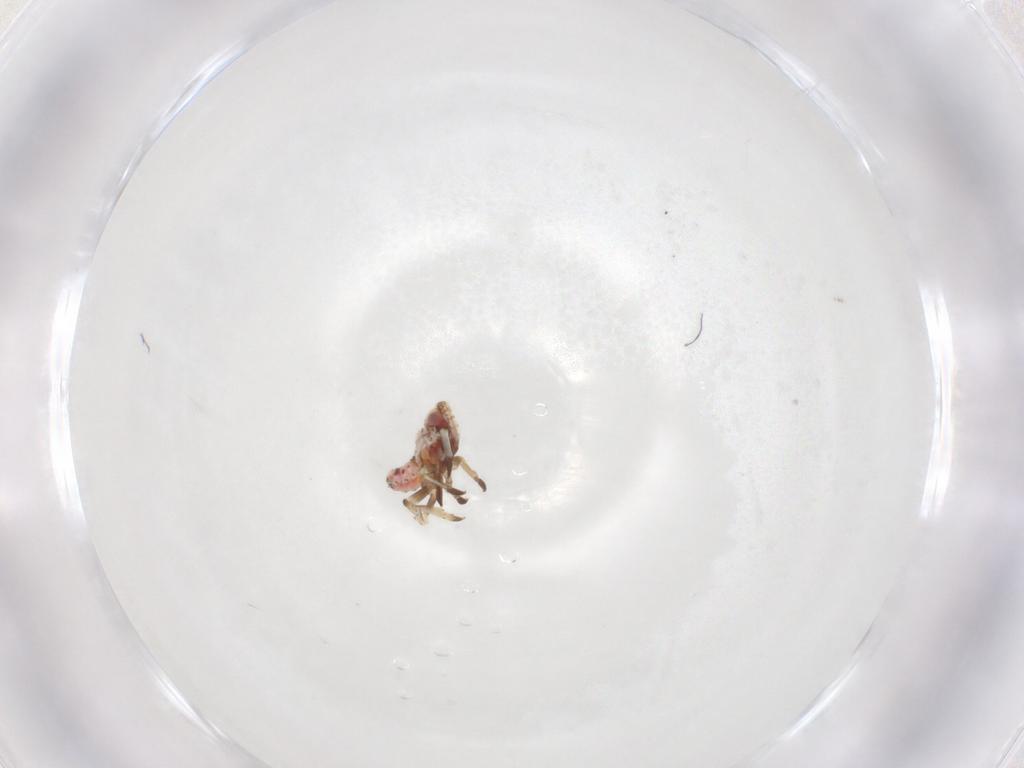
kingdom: Animalia
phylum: Arthropoda
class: Insecta
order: Hemiptera
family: Tropiduchidae
